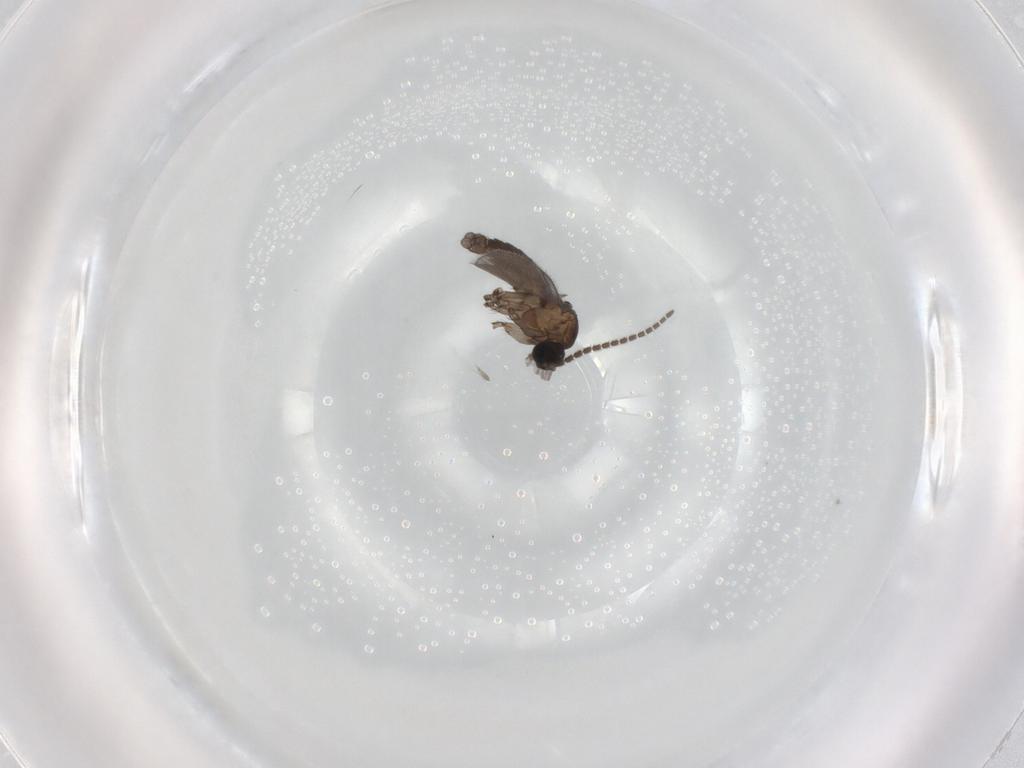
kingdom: Animalia
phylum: Arthropoda
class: Insecta
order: Diptera
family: Sciaridae
